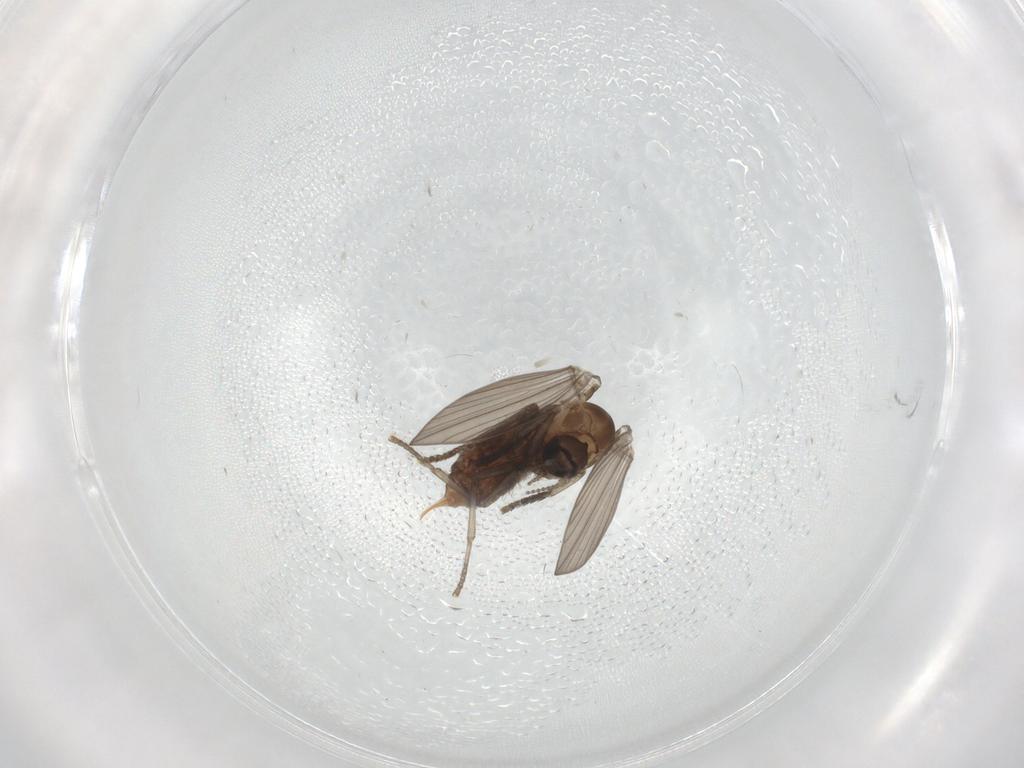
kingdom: Animalia
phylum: Arthropoda
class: Insecta
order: Diptera
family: Psychodidae
